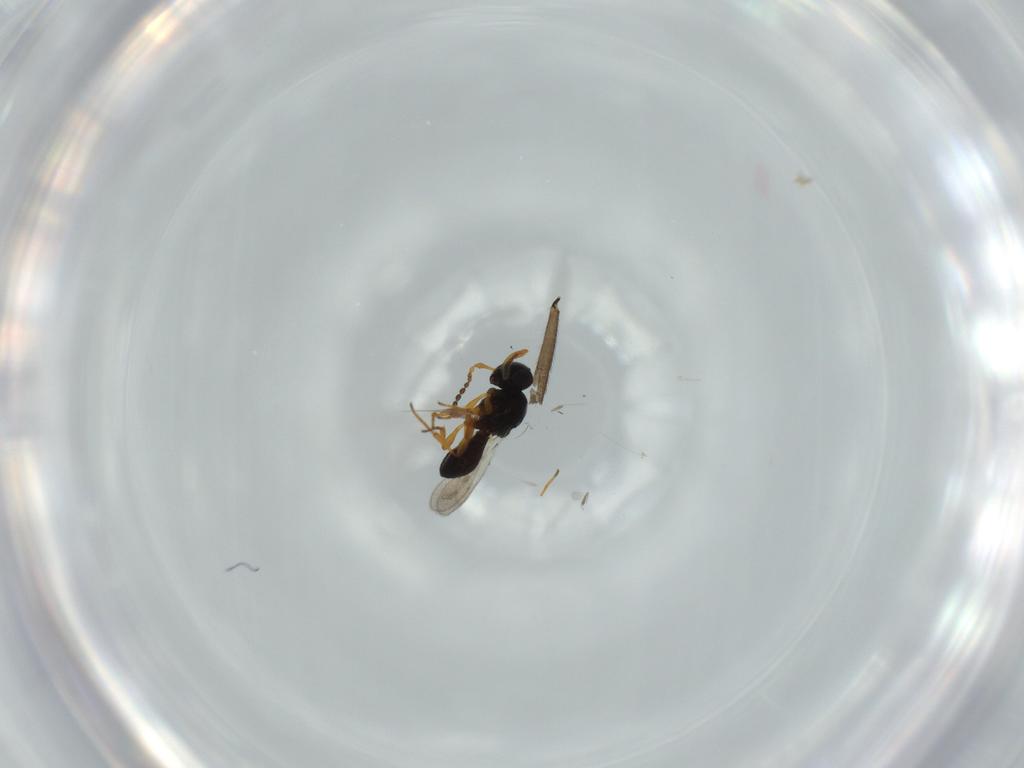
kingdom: Animalia
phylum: Arthropoda
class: Insecta
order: Hymenoptera
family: Platygastridae
